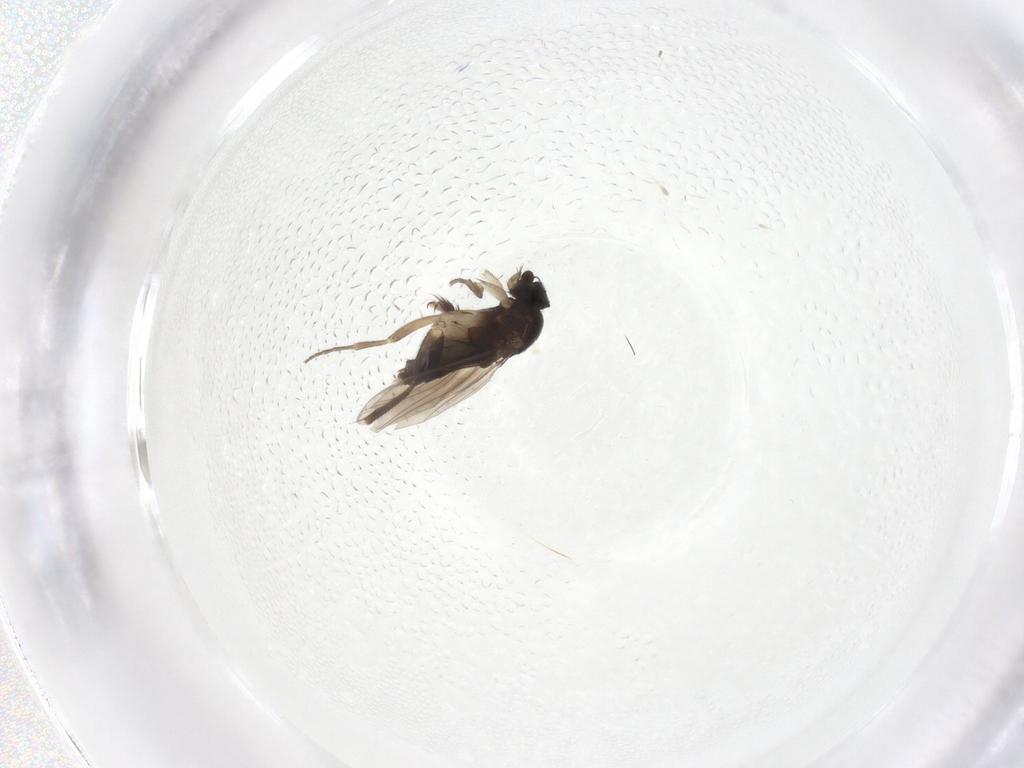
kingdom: Animalia
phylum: Arthropoda
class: Insecta
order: Diptera
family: Phoridae
